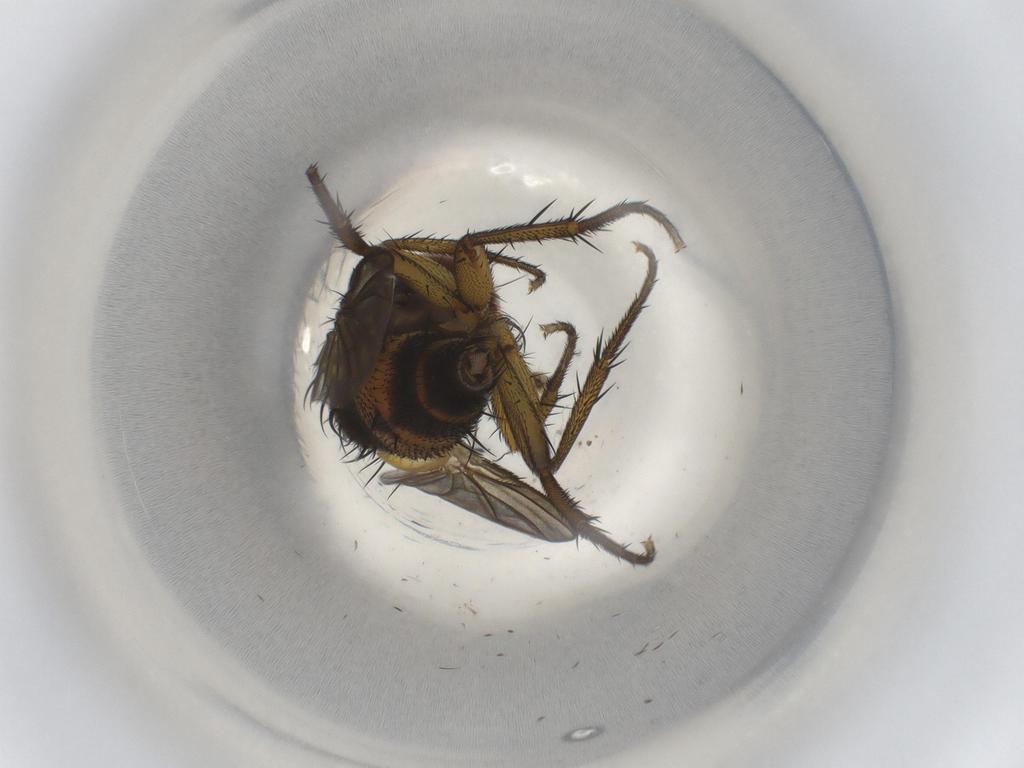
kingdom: Animalia
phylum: Arthropoda
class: Insecta
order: Diptera
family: Tachinidae
